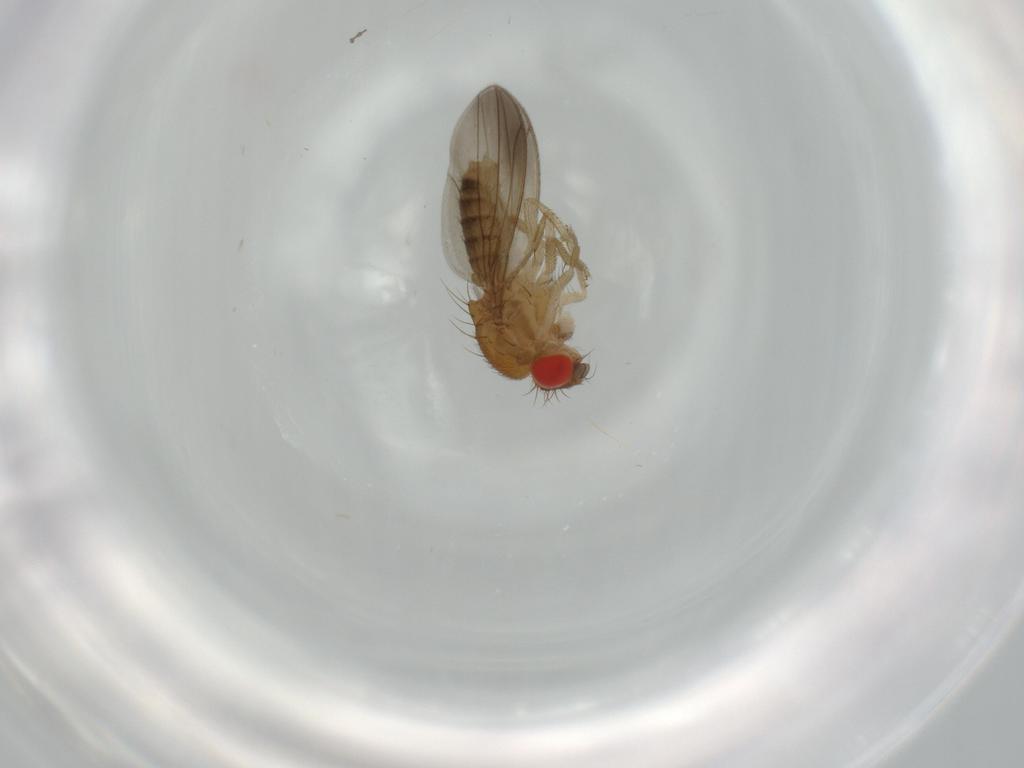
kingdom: Animalia
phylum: Arthropoda
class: Insecta
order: Diptera
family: Drosophilidae
